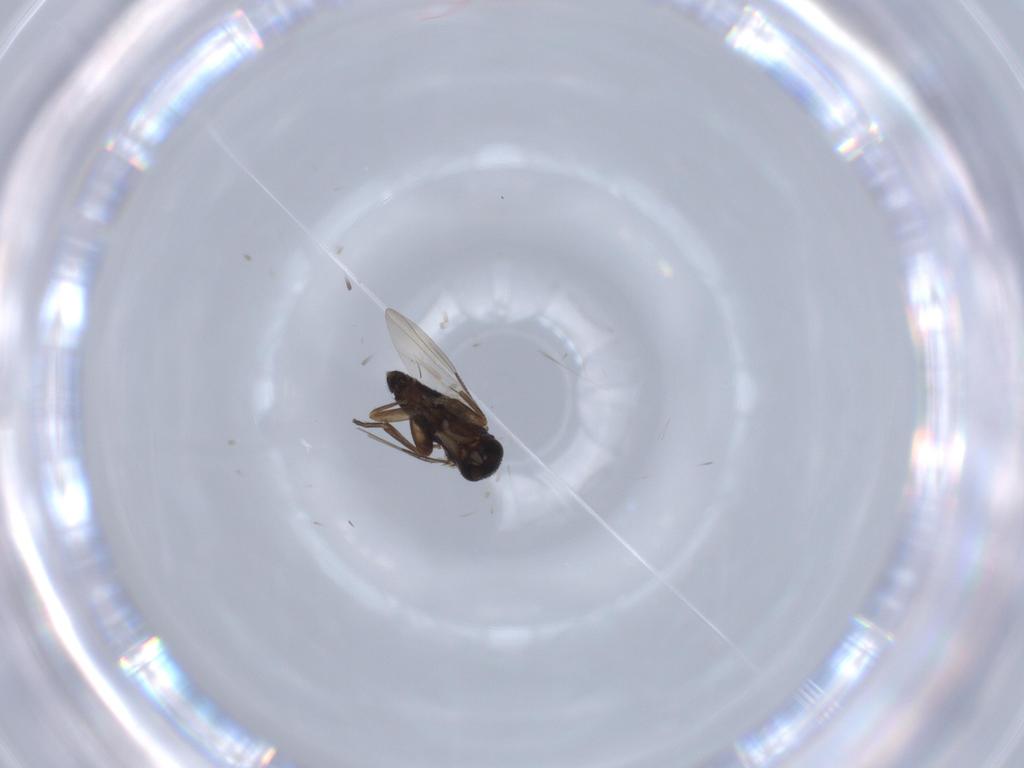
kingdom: Animalia
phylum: Arthropoda
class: Insecta
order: Diptera
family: Phoridae
